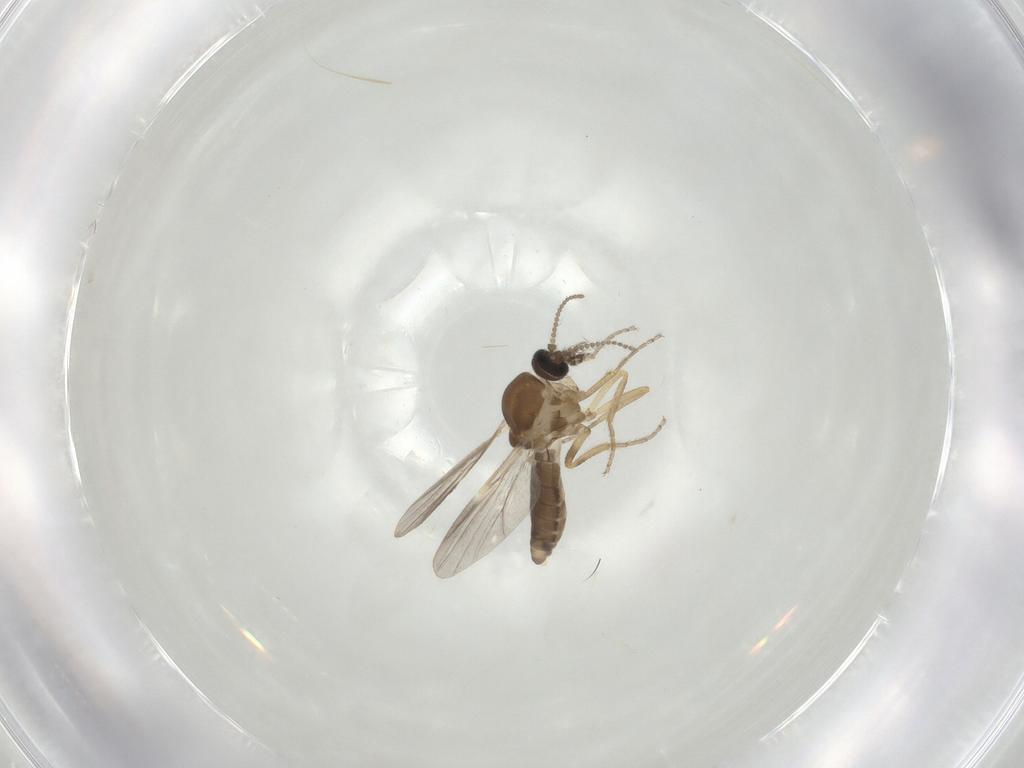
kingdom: Animalia
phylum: Arthropoda
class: Insecta
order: Diptera
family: Ceratopogonidae
